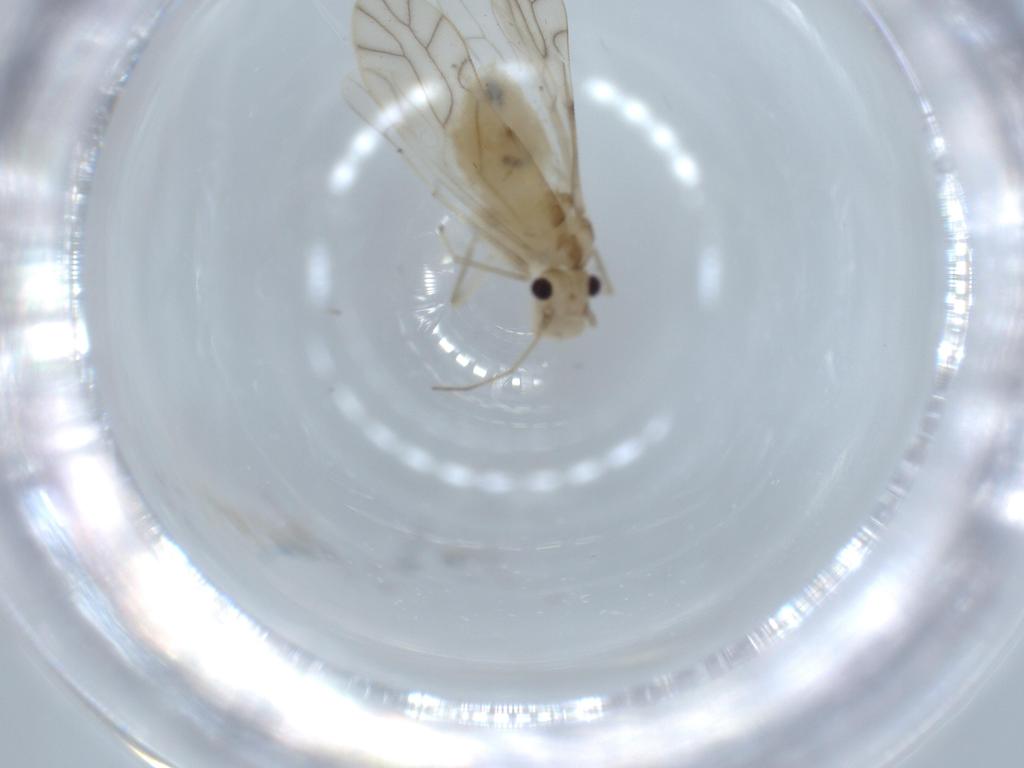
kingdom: Animalia
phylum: Arthropoda
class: Insecta
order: Psocodea
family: Caeciliusidae
